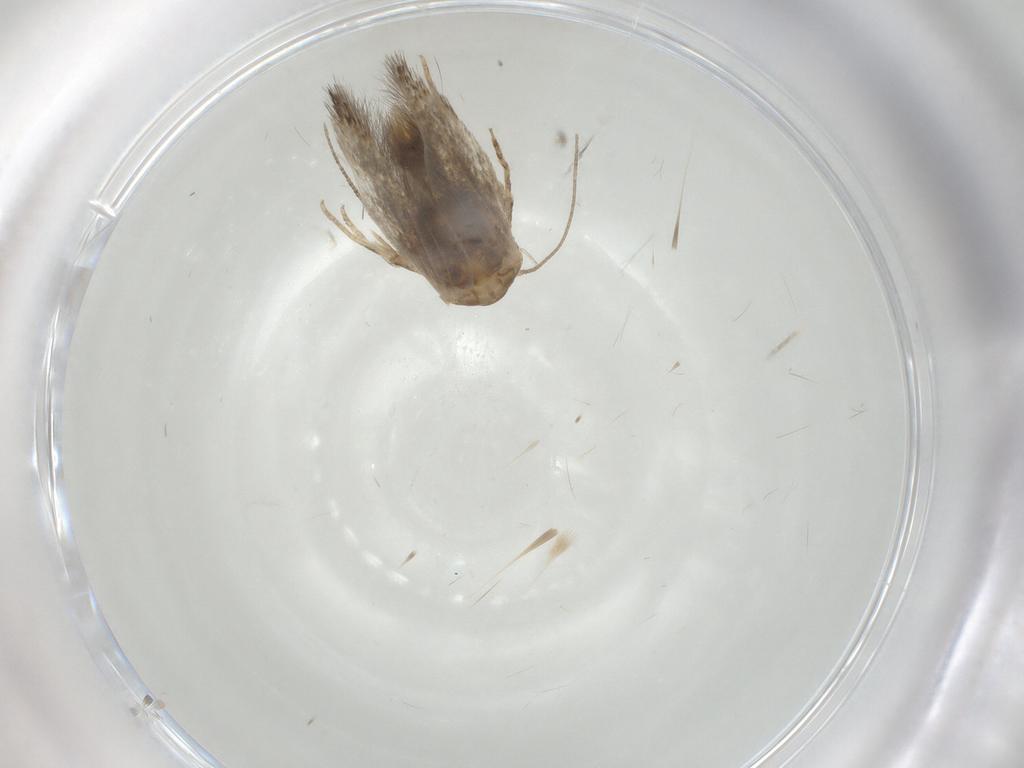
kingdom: Animalia
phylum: Arthropoda
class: Insecta
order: Lepidoptera
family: Elachistidae
